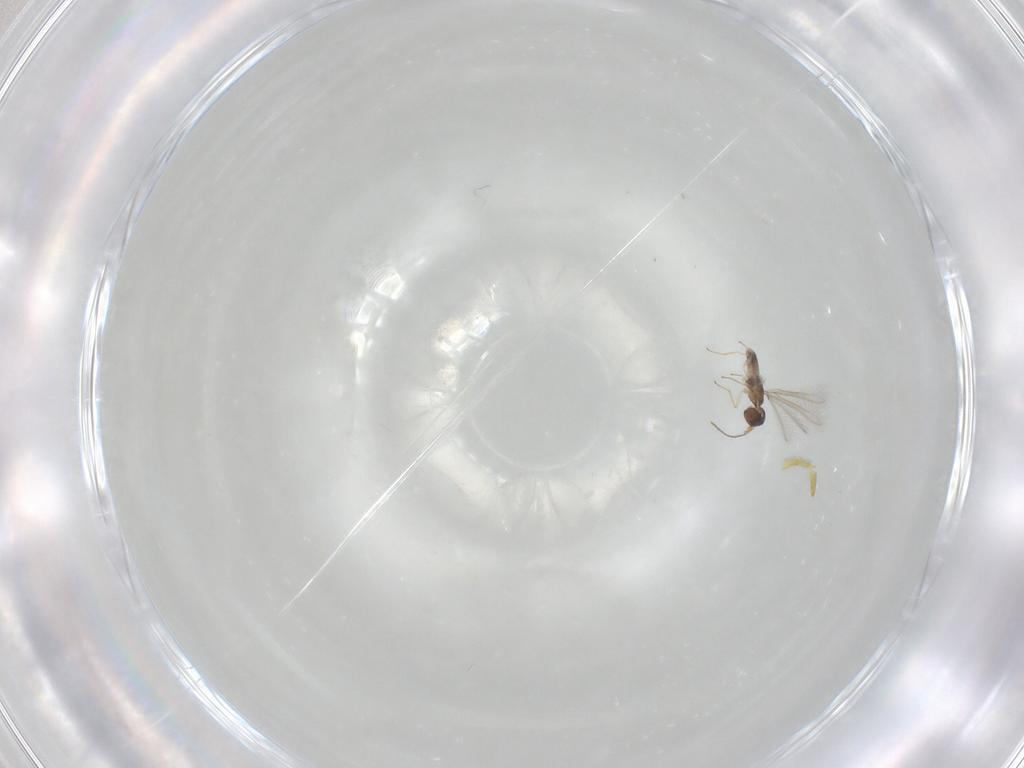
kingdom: Animalia
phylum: Arthropoda
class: Insecta
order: Hymenoptera
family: Mymaridae
